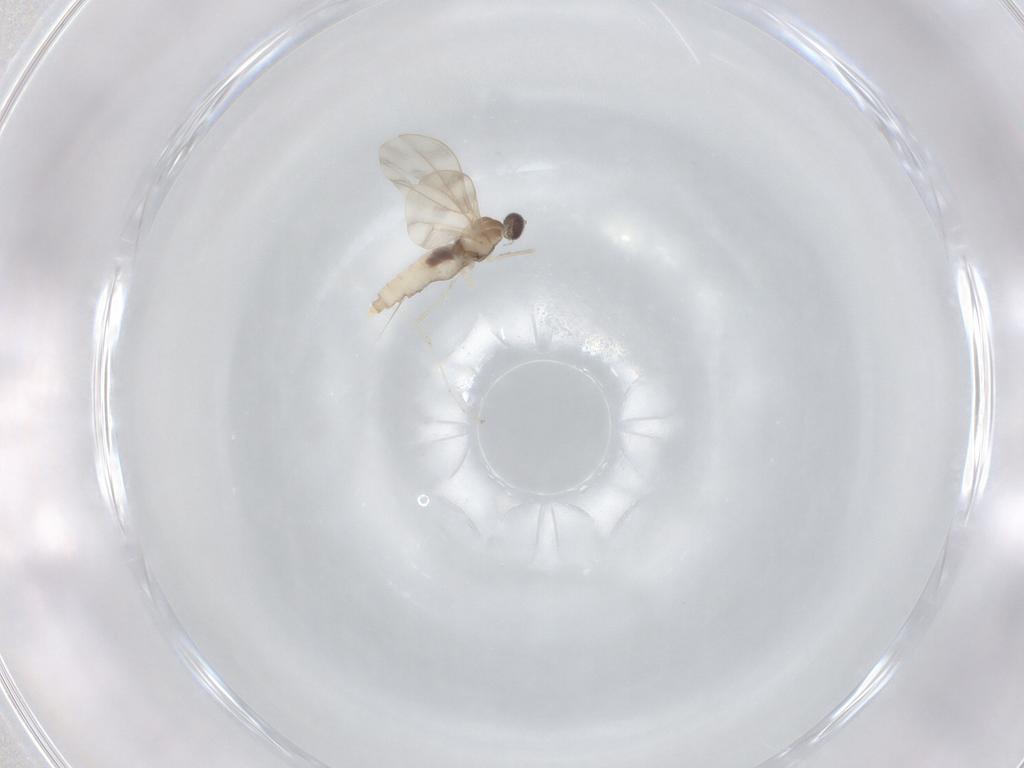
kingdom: Animalia
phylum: Arthropoda
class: Insecta
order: Diptera
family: Cecidomyiidae
